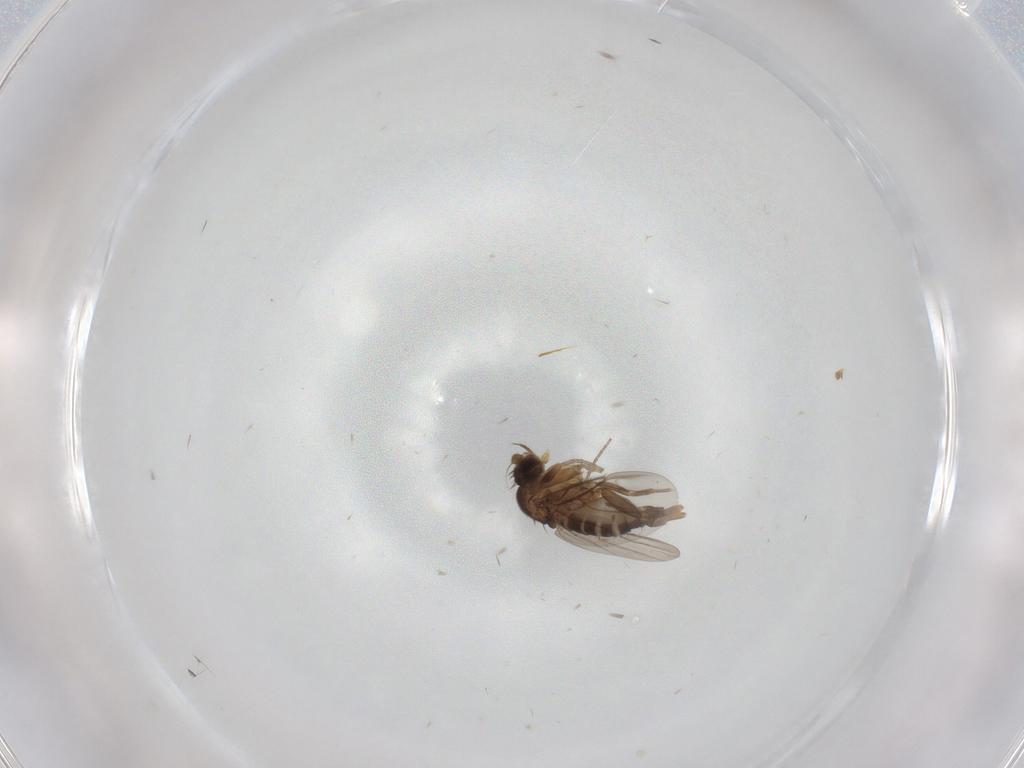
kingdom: Animalia
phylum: Arthropoda
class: Insecta
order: Diptera
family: Phoridae
